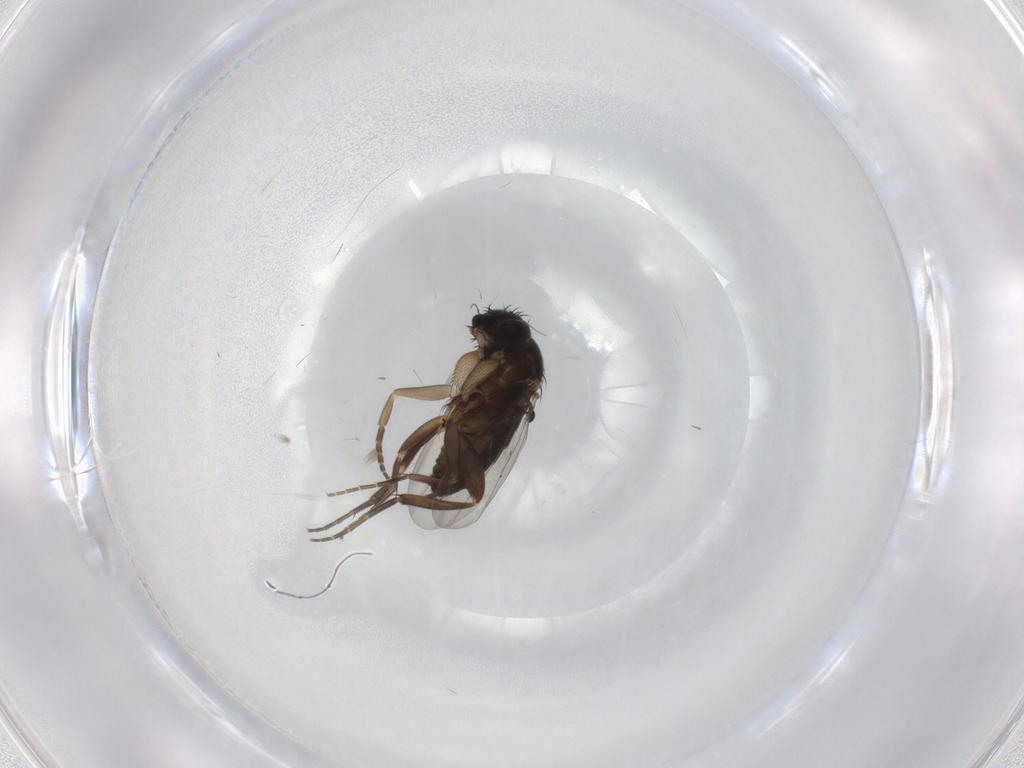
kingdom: Animalia
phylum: Arthropoda
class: Insecta
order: Diptera
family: Phoridae
